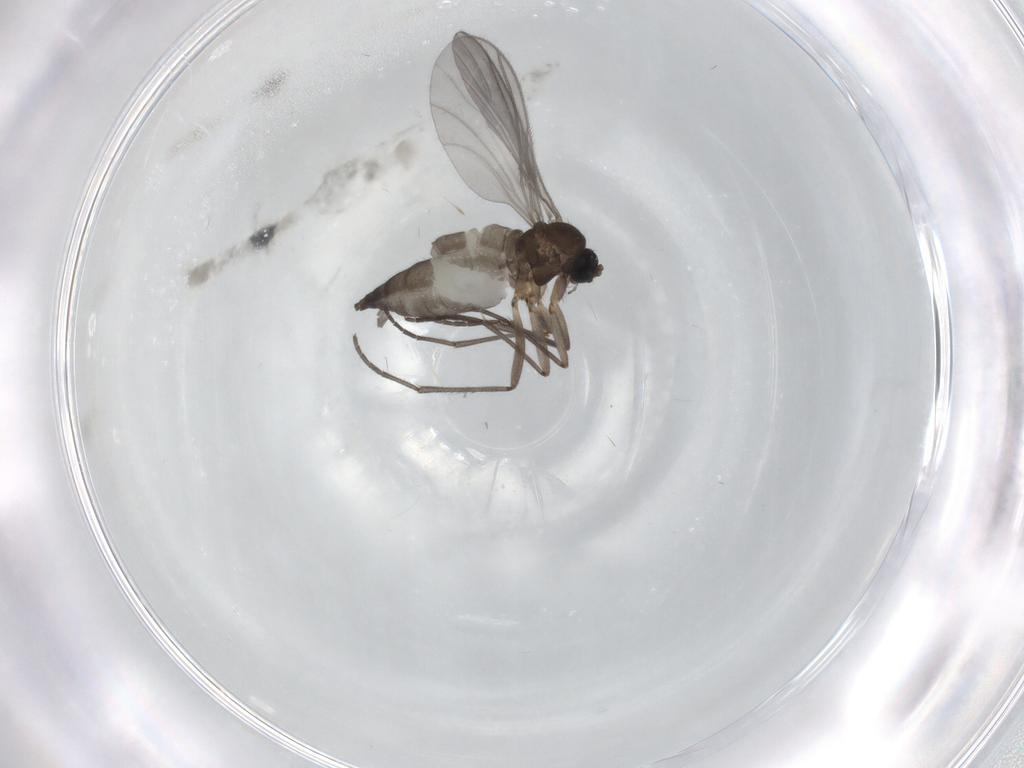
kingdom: Animalia
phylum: Arthropoda
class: Insecta
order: Diptera
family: Sciaridae
